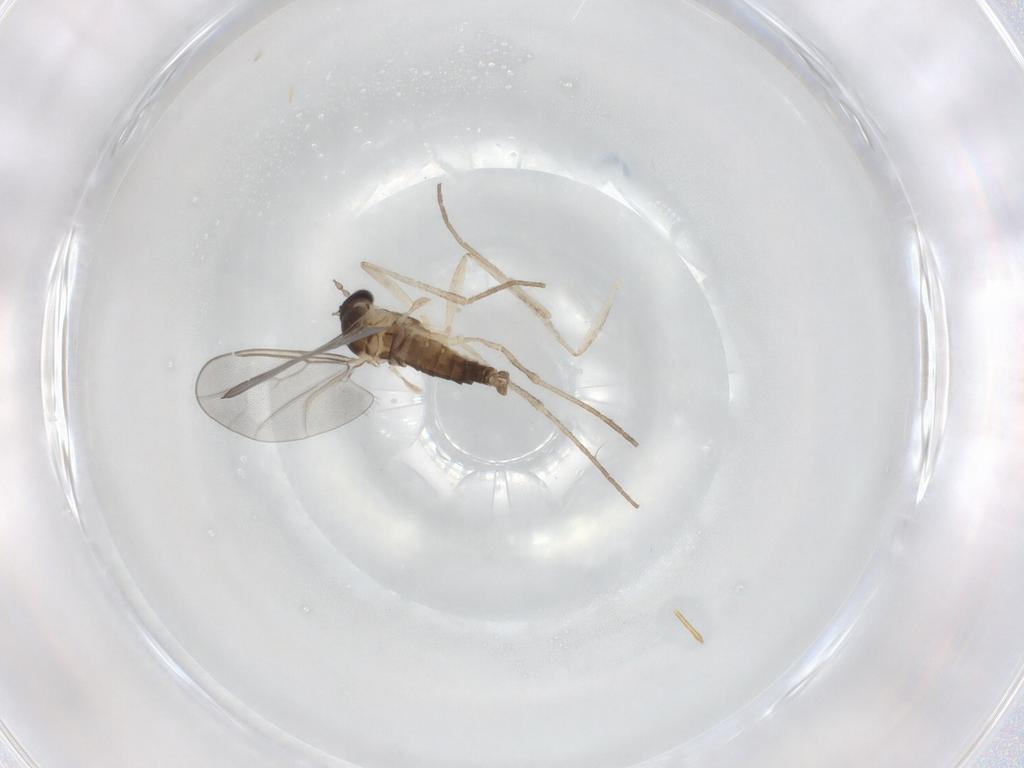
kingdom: Animalia
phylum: Arthropoda
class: Insecta
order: Diptera
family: Cecidomyiidae
